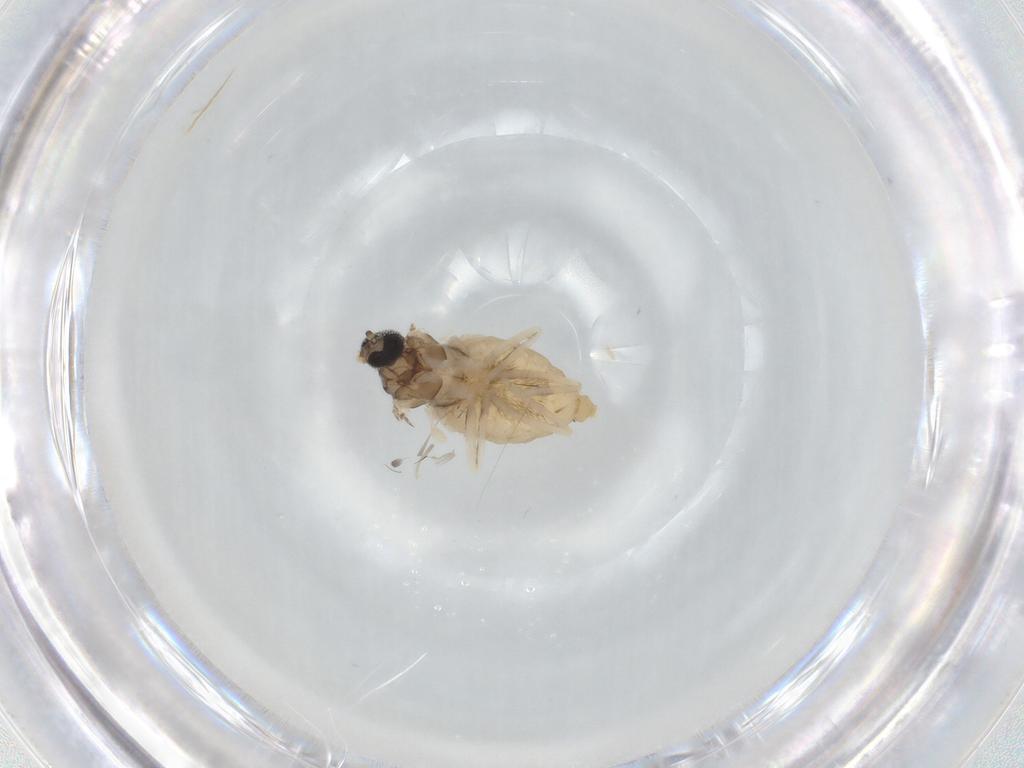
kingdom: Animalia
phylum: Arthropoda
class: Insecta
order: Diptera
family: Cecidomyiidae
